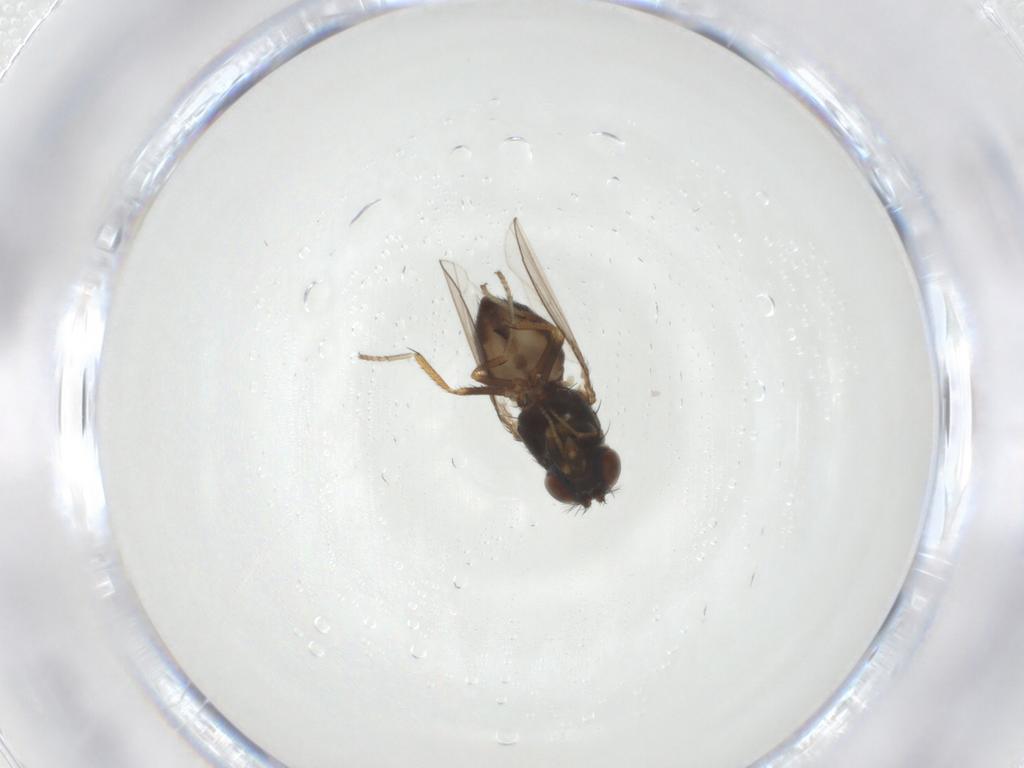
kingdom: Animalia
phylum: Arthropoda
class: Insecta
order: Diptera
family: Ephydridae
